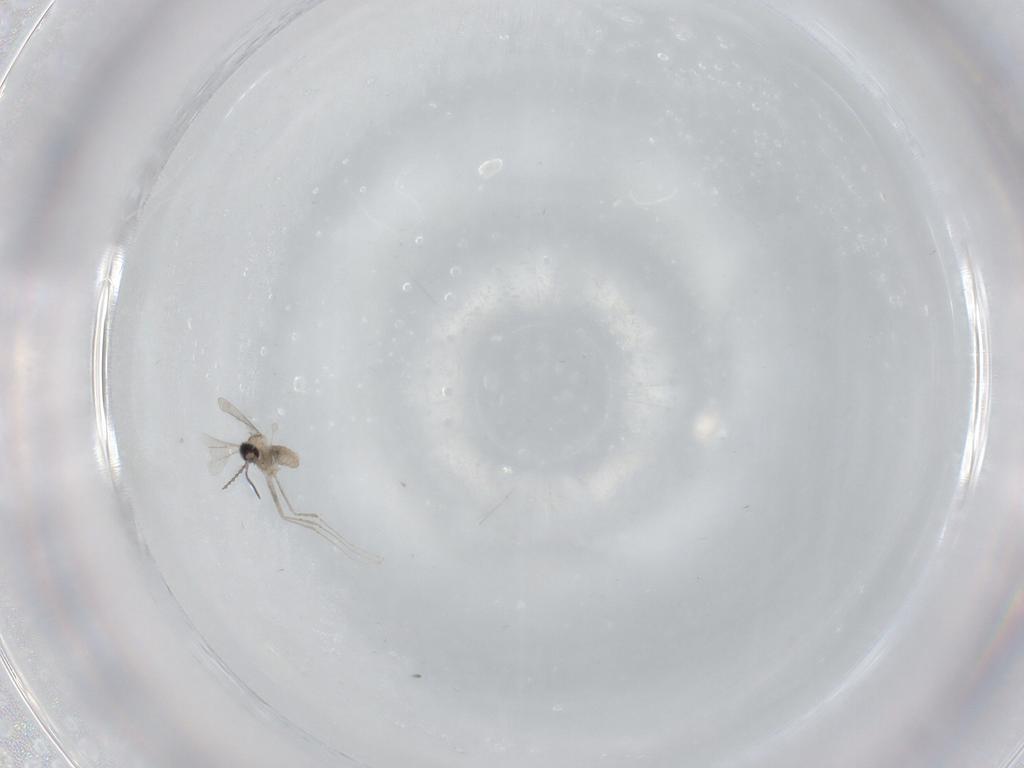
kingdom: Animalia
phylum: Arthropoda
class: Insecta
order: Diptera
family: Cecidomyiidae
